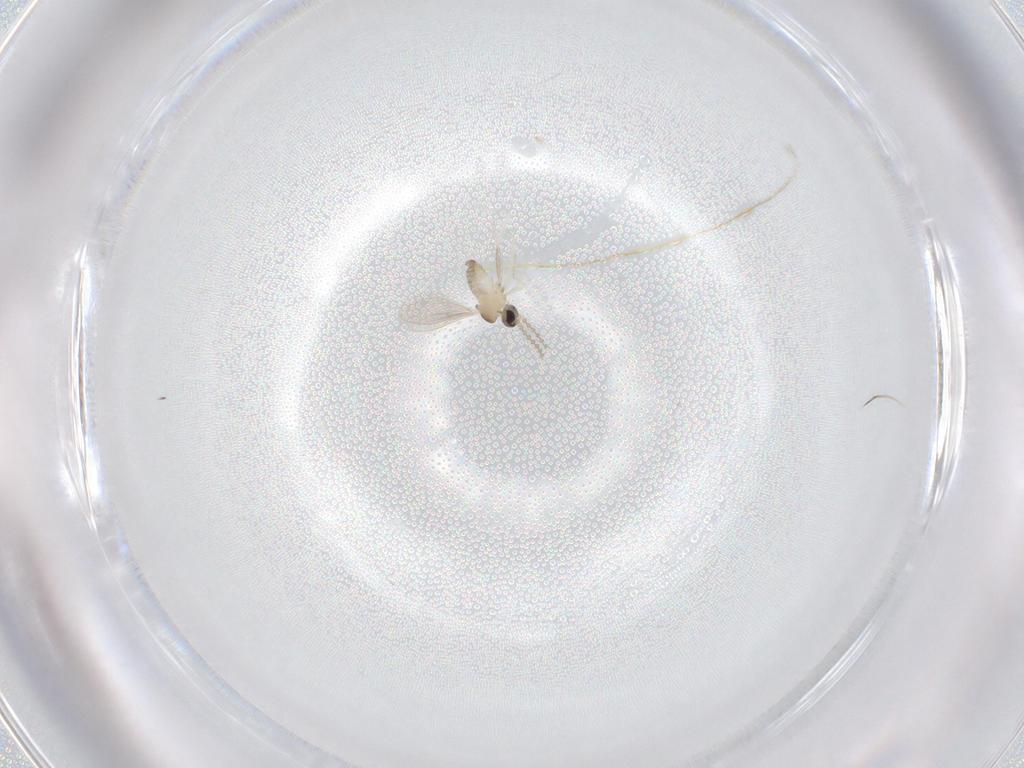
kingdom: Animalia
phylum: Arthropoda
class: Insecta
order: Diptera
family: Cecidomyiidae
